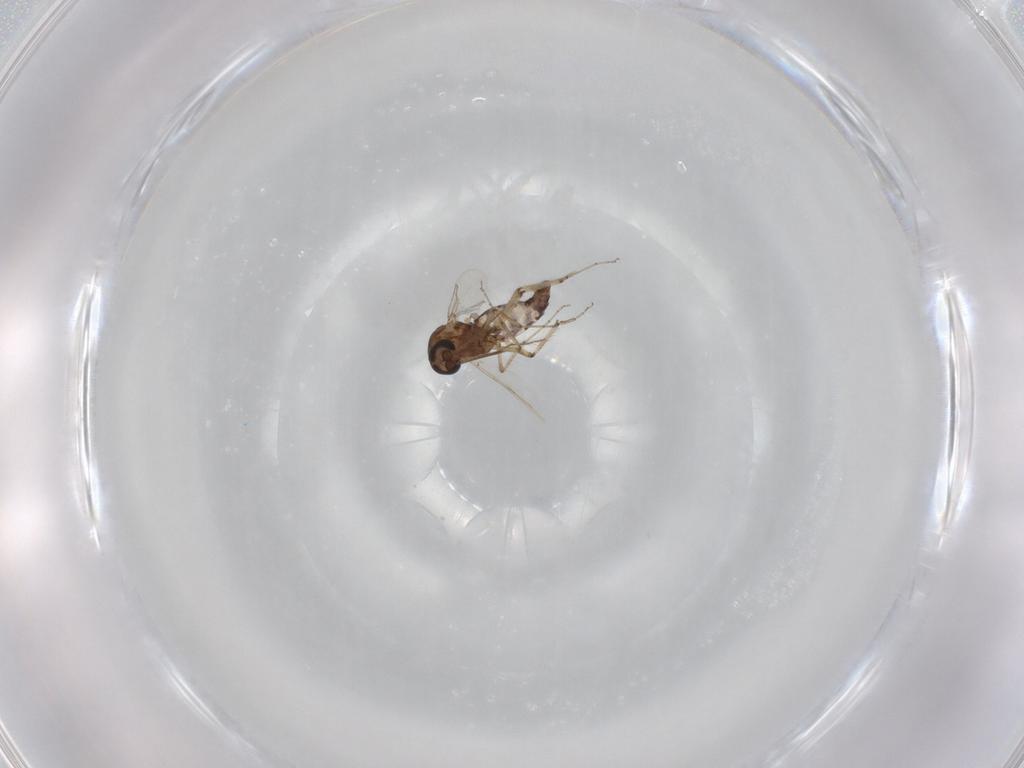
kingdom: Animalia
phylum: Arthropoda
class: Insecta
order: Diptera
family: Ceratopogonidae
